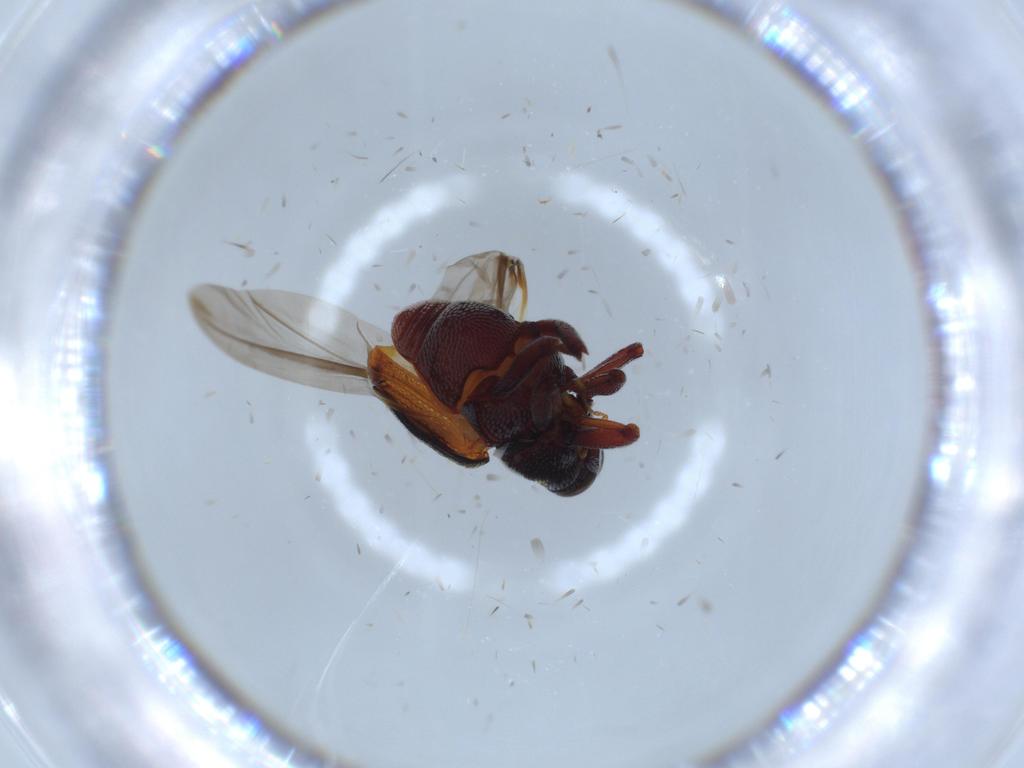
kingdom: Animalia
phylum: Arthropoda
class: Insecta
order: Coleoptera
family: Curculionidae
